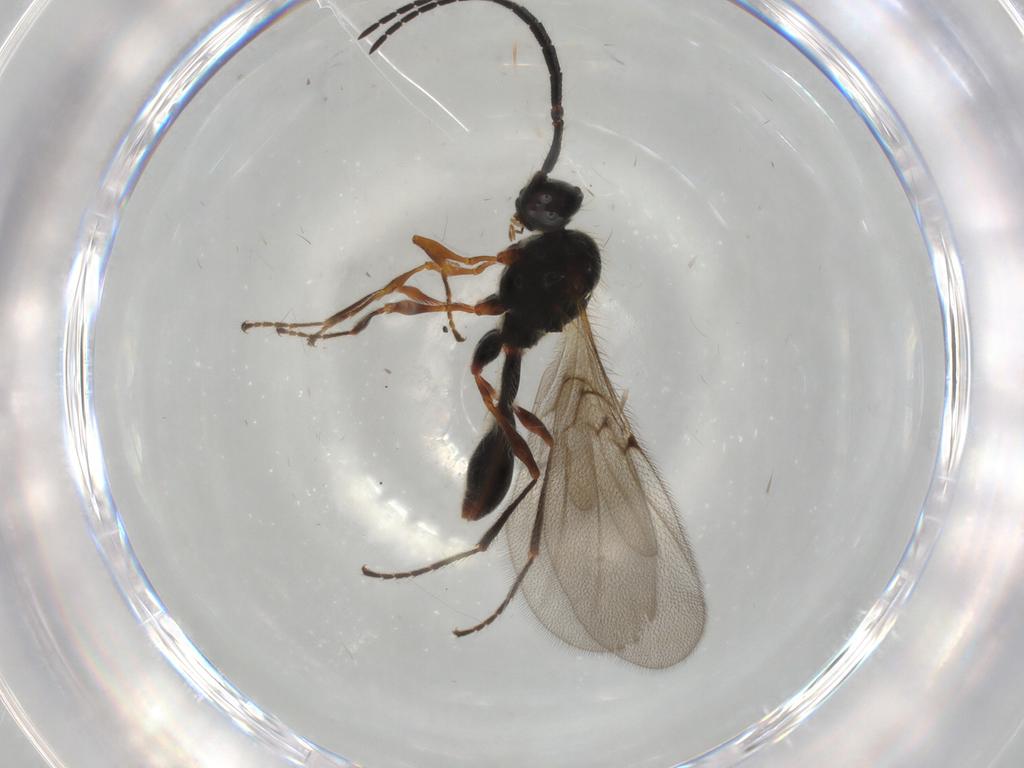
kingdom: Animalia
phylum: Arthropoda
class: Insecta
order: Hymenoptera
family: Diapriidae
